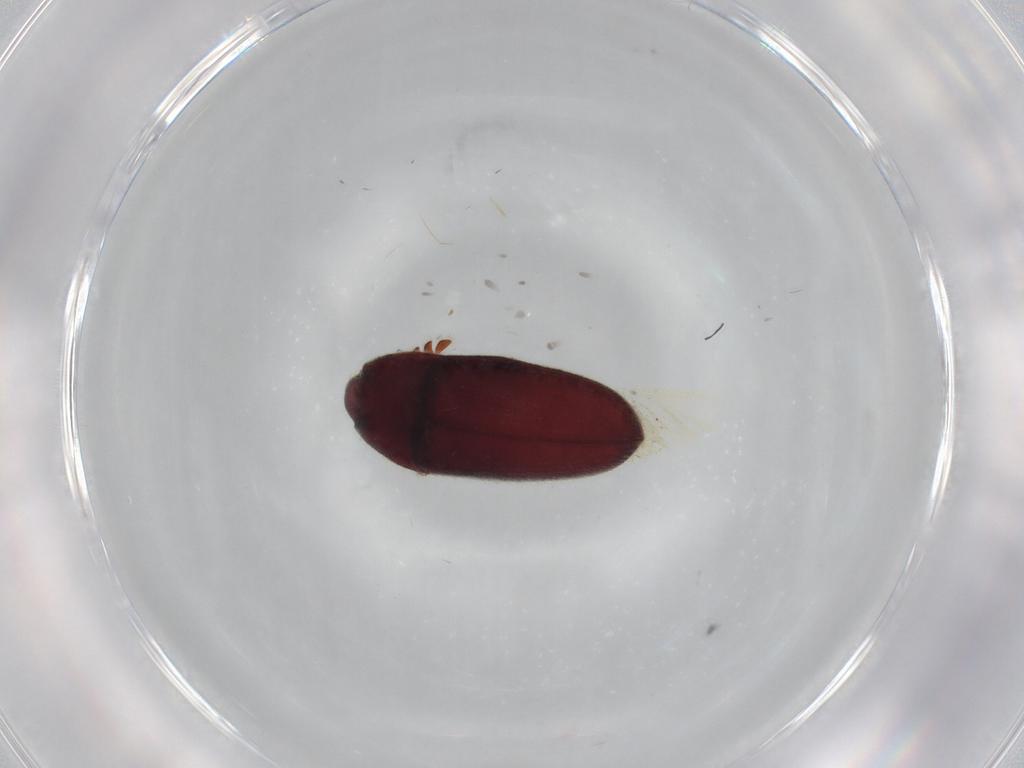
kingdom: Animalia
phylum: Arthropoda
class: Insecta
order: Coleoptera
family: Throscidae
